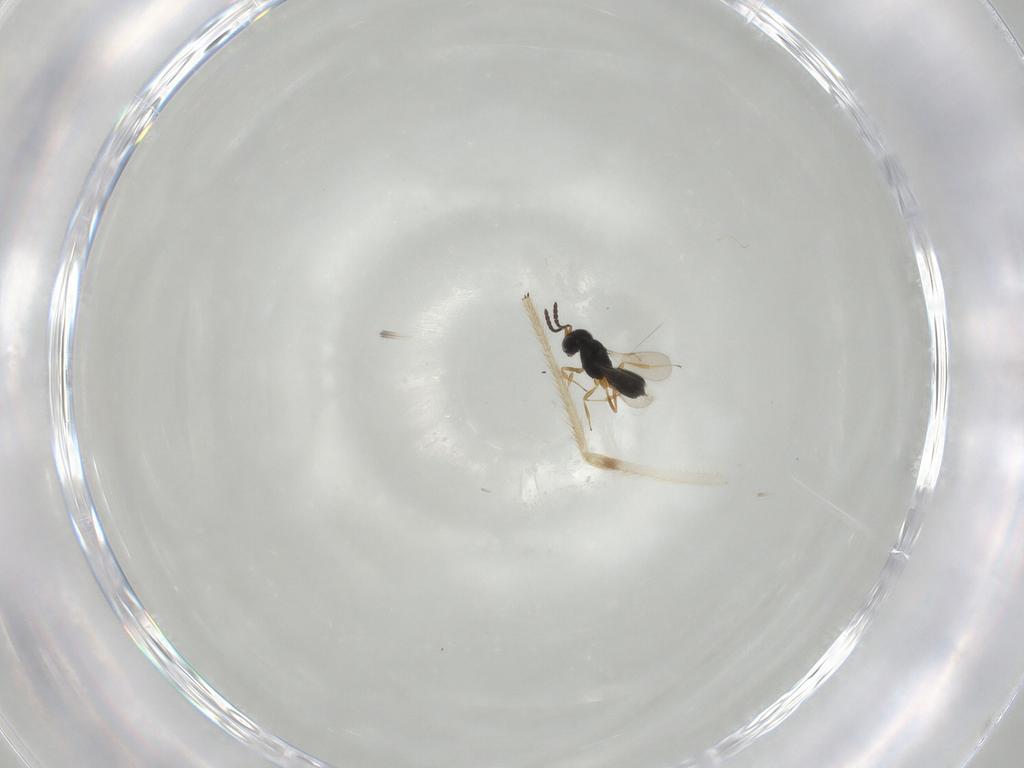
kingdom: Animalia
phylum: Arthropoda
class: Insecta
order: Hymenoptera
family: Scelionidae
